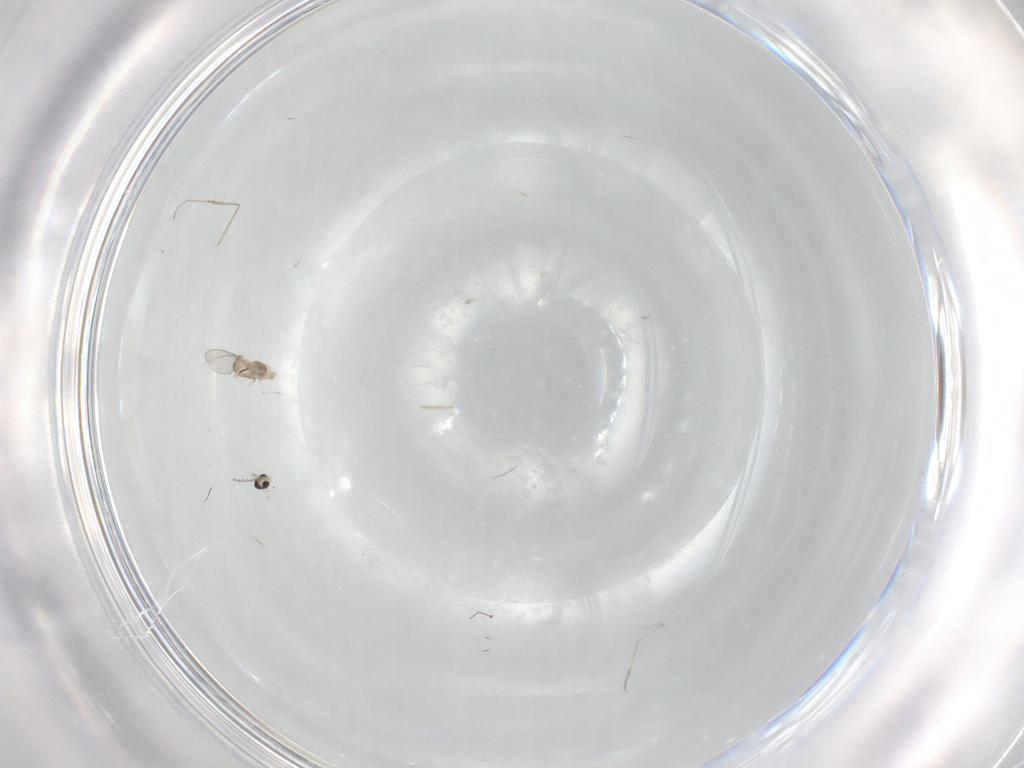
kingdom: Animalia
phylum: Arthropoda
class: Insecta
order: Diptera
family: Cecidomyiidae
